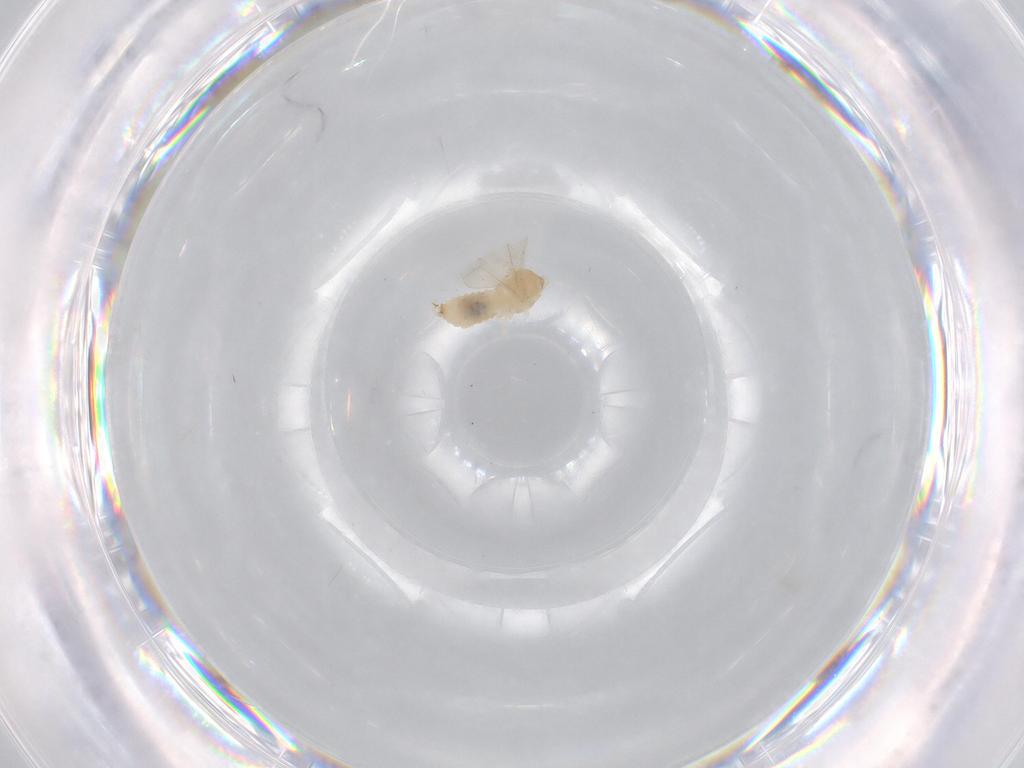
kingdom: Animalia
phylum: Arthropoda
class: Insecta
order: Diptera
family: Cecidomyiidae
